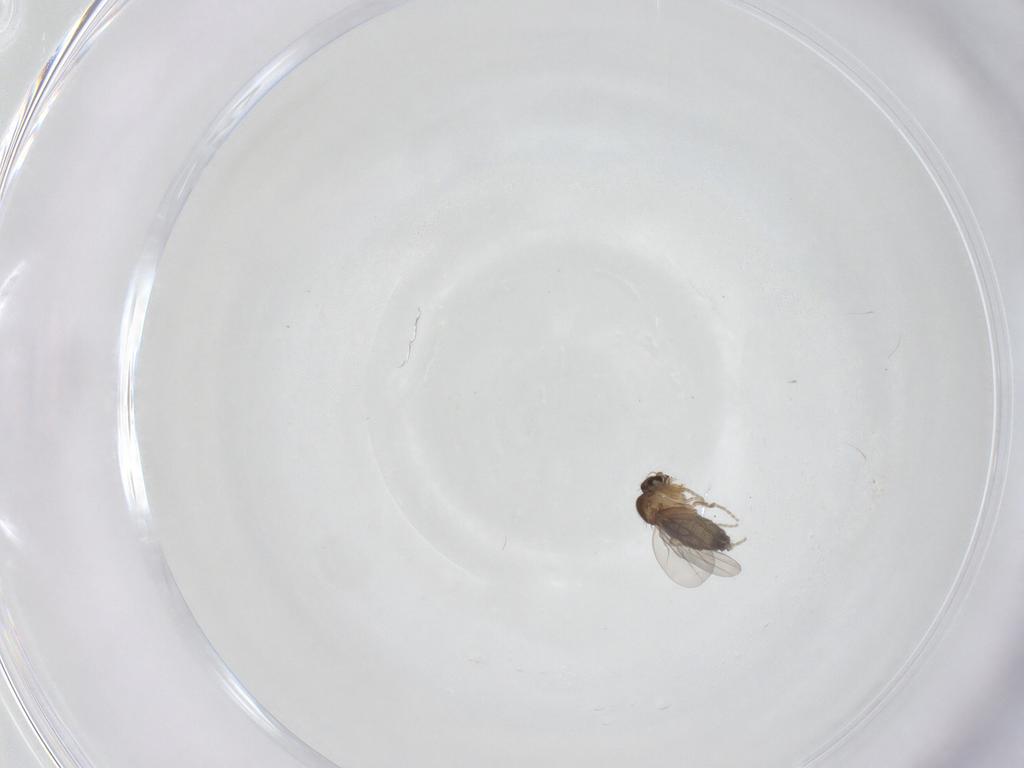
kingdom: Animalia
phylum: Arthropoda
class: Insecta
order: Diptera
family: Phoridae
